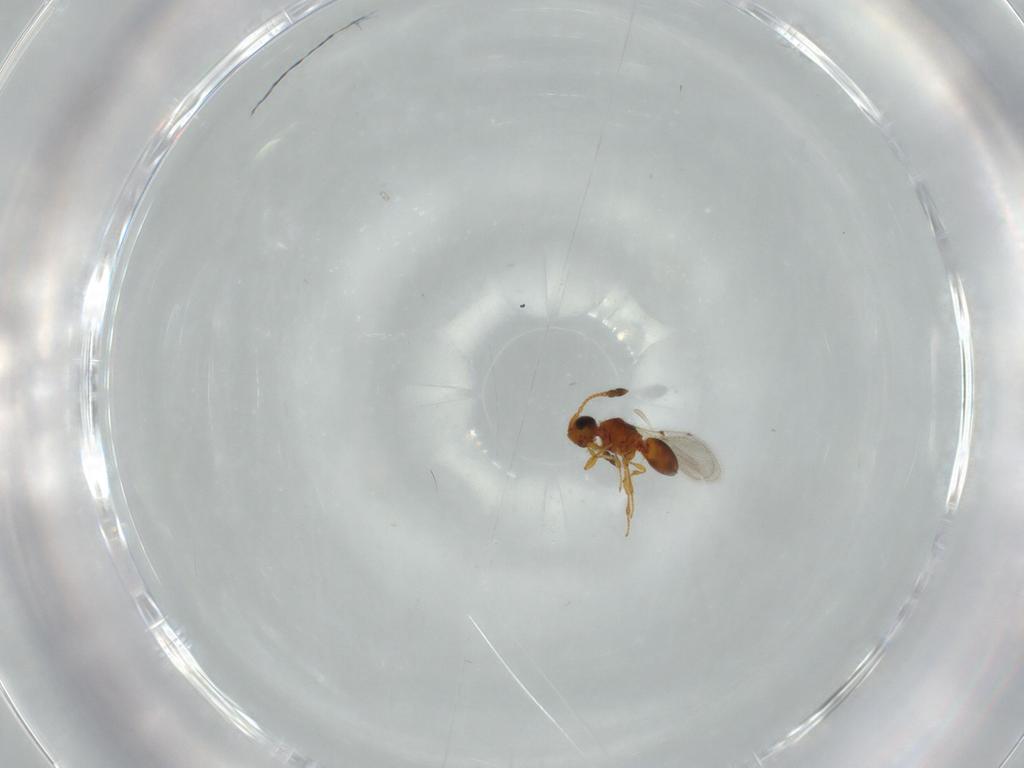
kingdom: Animalia
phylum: Arthropoda
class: Insecta
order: Hymenoptera
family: Diapriidae
